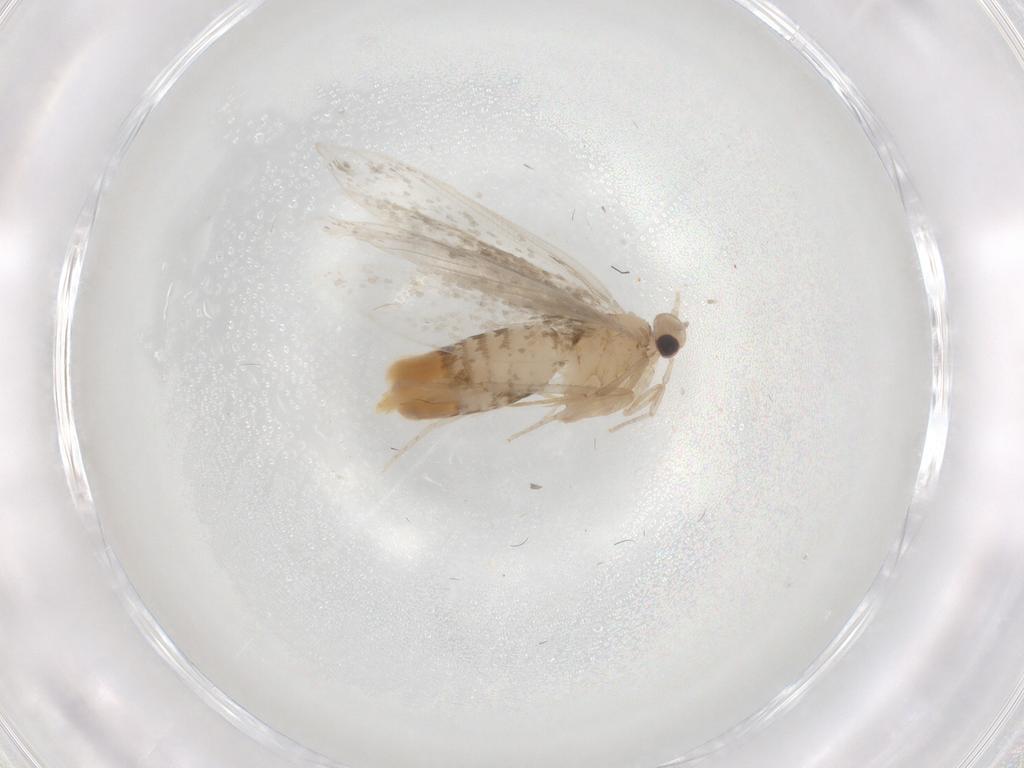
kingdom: Animalia
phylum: Arthropoda
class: Insecta
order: Lepidoptera
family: Psychidae
